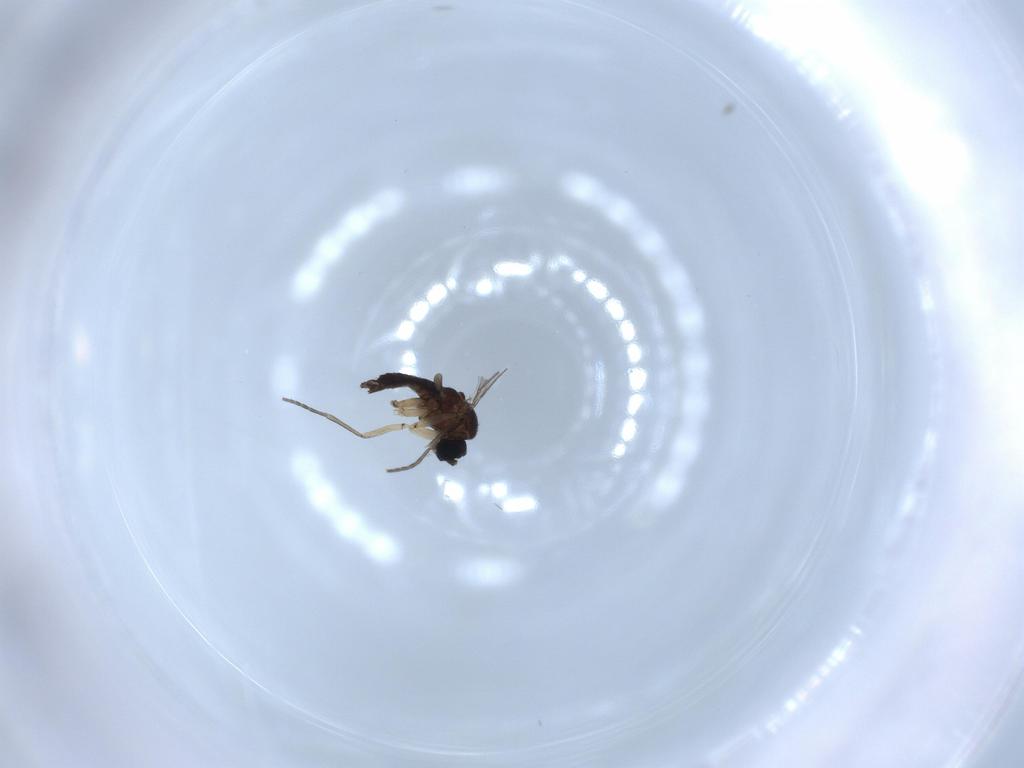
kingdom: Animalia
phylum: Arthropoda
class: Insecta
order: Diptera
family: Sciaridae
